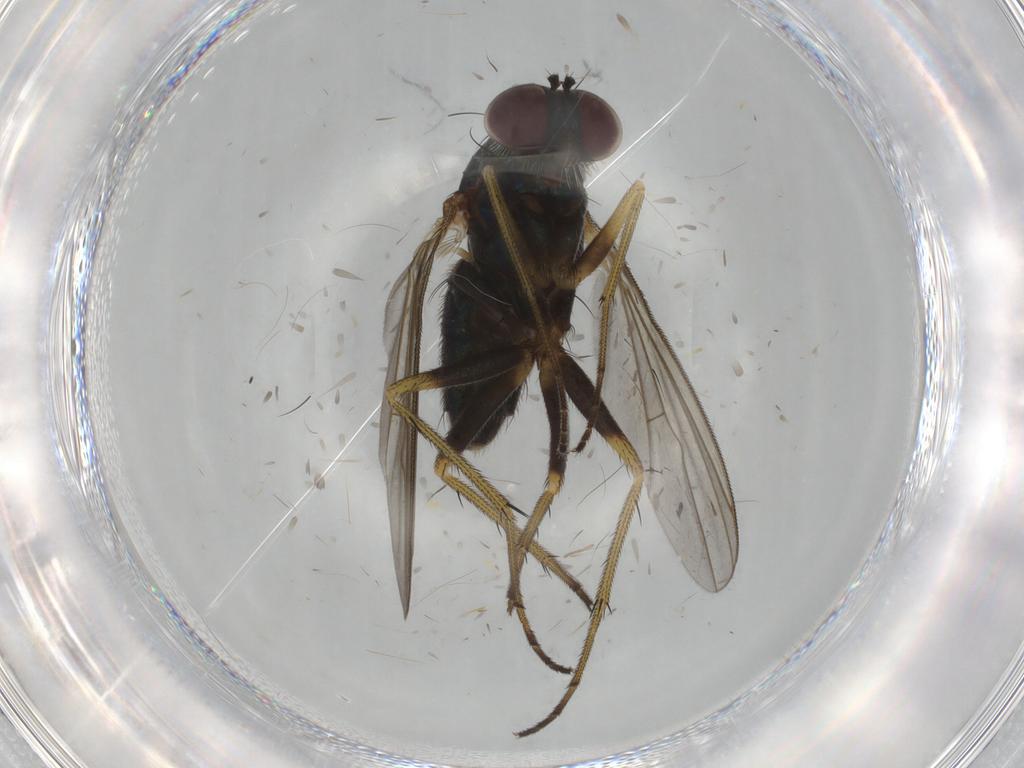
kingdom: Animalia
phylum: Arthropoda
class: Insecta
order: Diptera
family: Dolichopodidae
